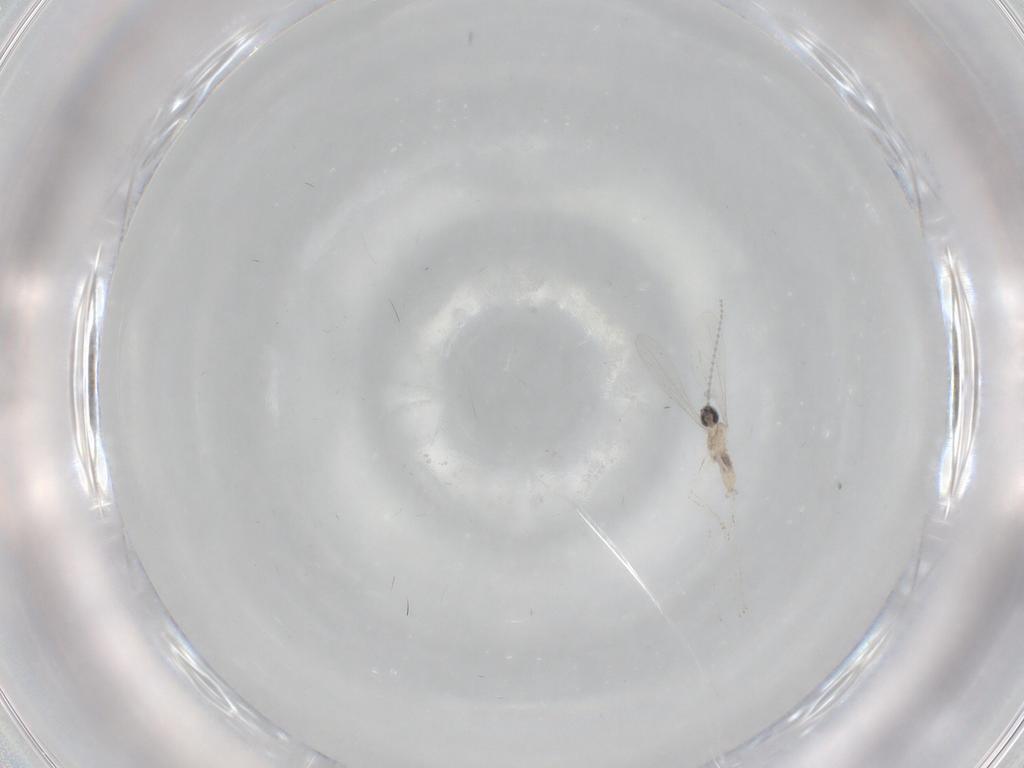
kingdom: Animalia
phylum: Arthropoda
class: Insecta
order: Diptera
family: Cecidomyiidae
